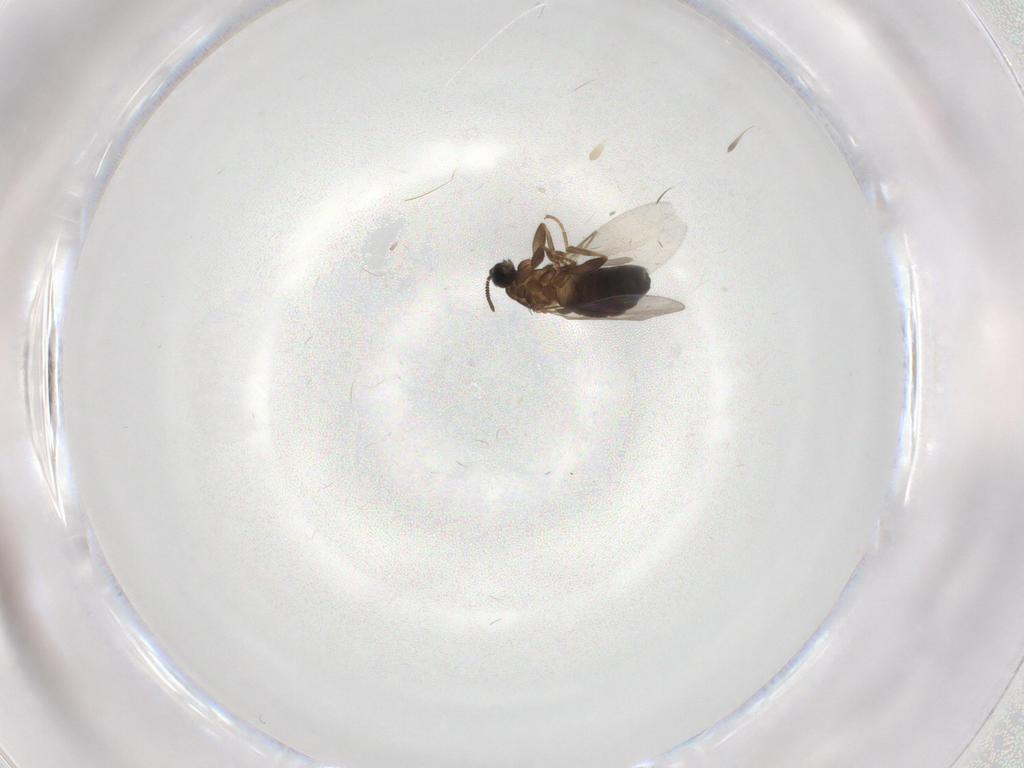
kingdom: Animalia
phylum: Arthropoda
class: Insecta
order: Diptera
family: Scatopsidae
